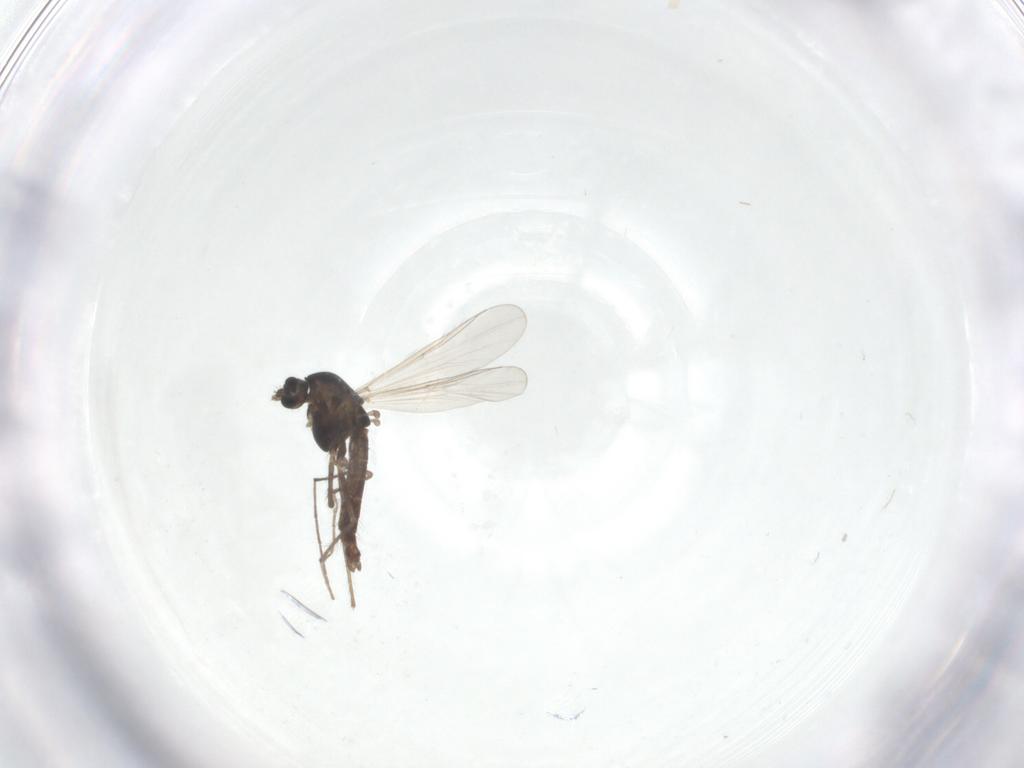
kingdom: Animalia
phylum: Arthropoda
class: Insecta
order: Diptera
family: Chironomidae
